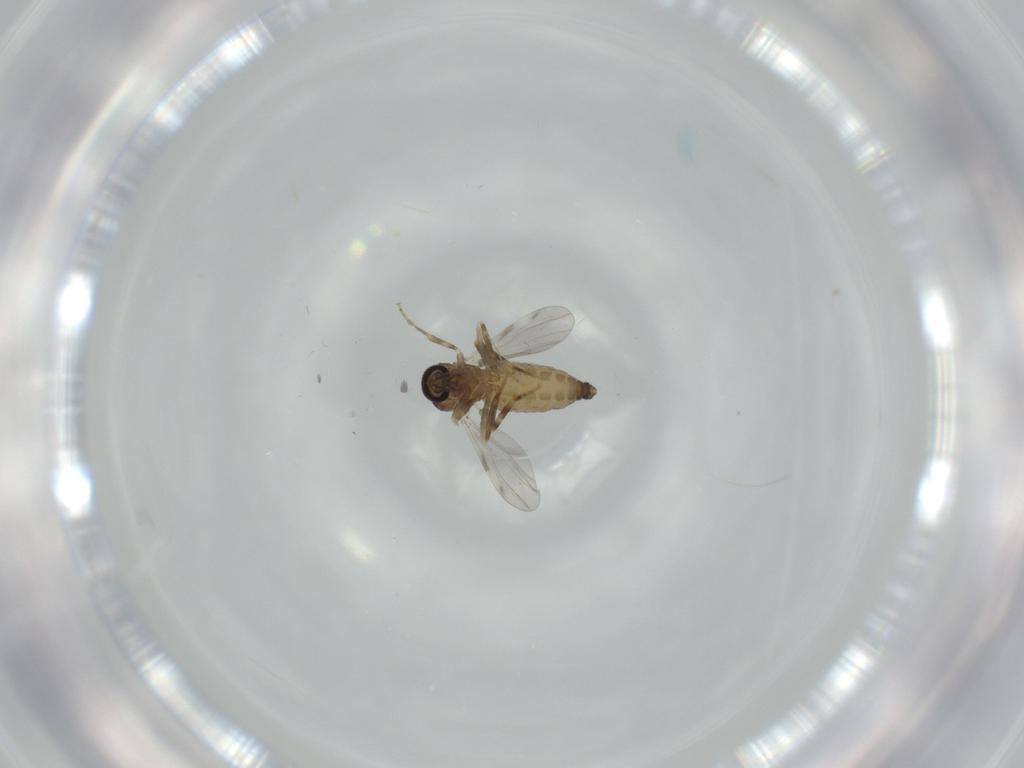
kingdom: Animalia
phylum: Arthropoda
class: Insecta
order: Diptera
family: Ceratopogonidae
